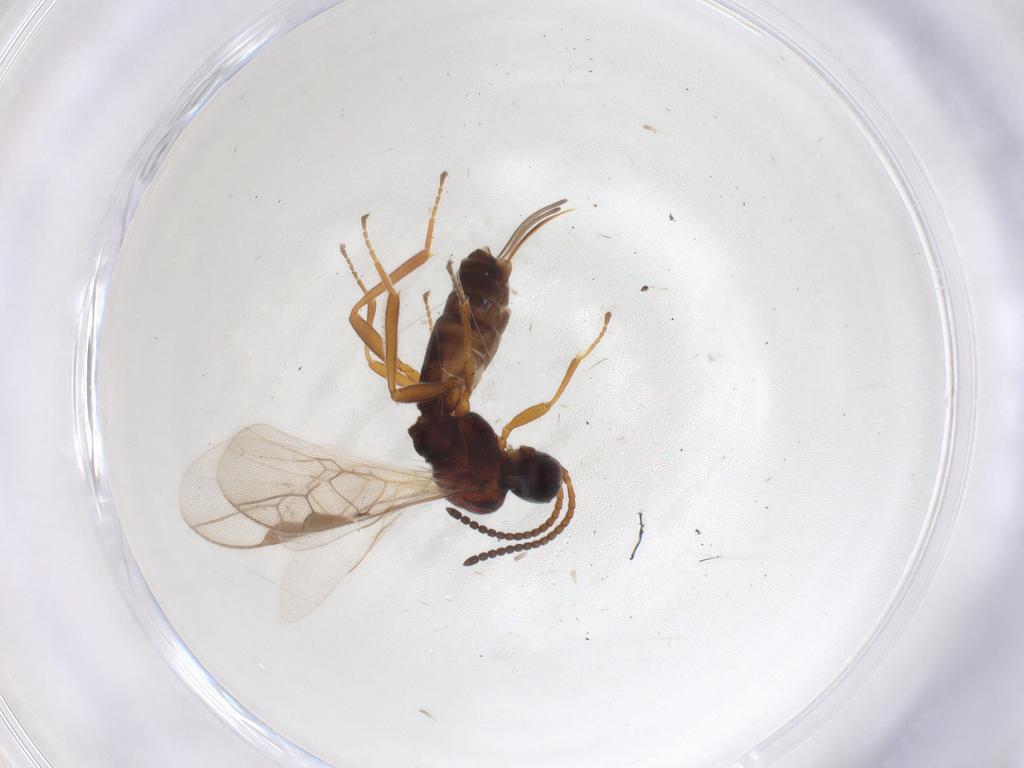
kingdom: Animalia
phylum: Arthropoda
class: Insecta
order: Hymenoptera
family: Braconidae
